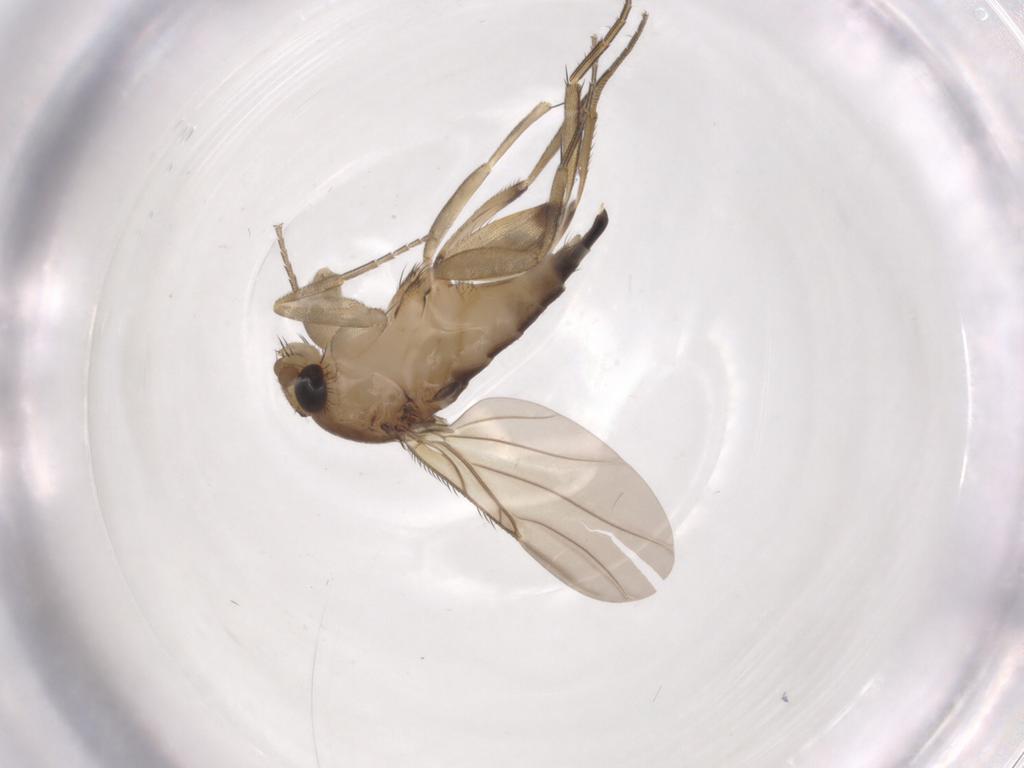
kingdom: Animalia
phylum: Arthropoda
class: Insecta
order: Diptera
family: Phoridae
